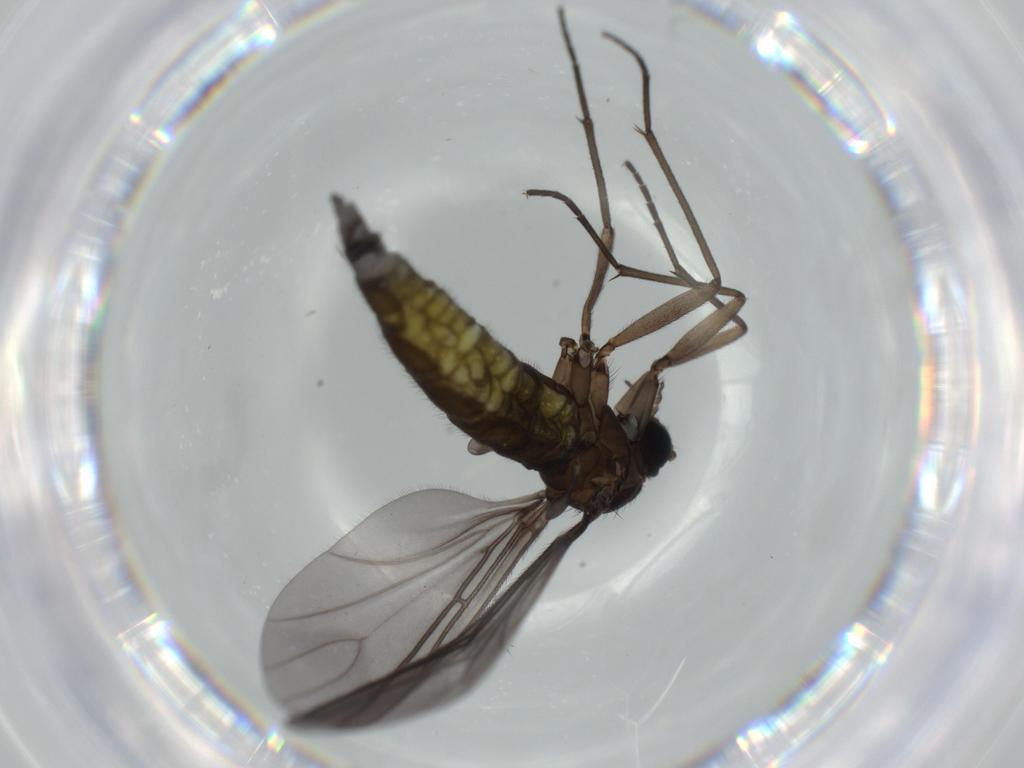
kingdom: Animalia
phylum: Arthropoda
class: Insecta
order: Diptera
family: Sciaridae
